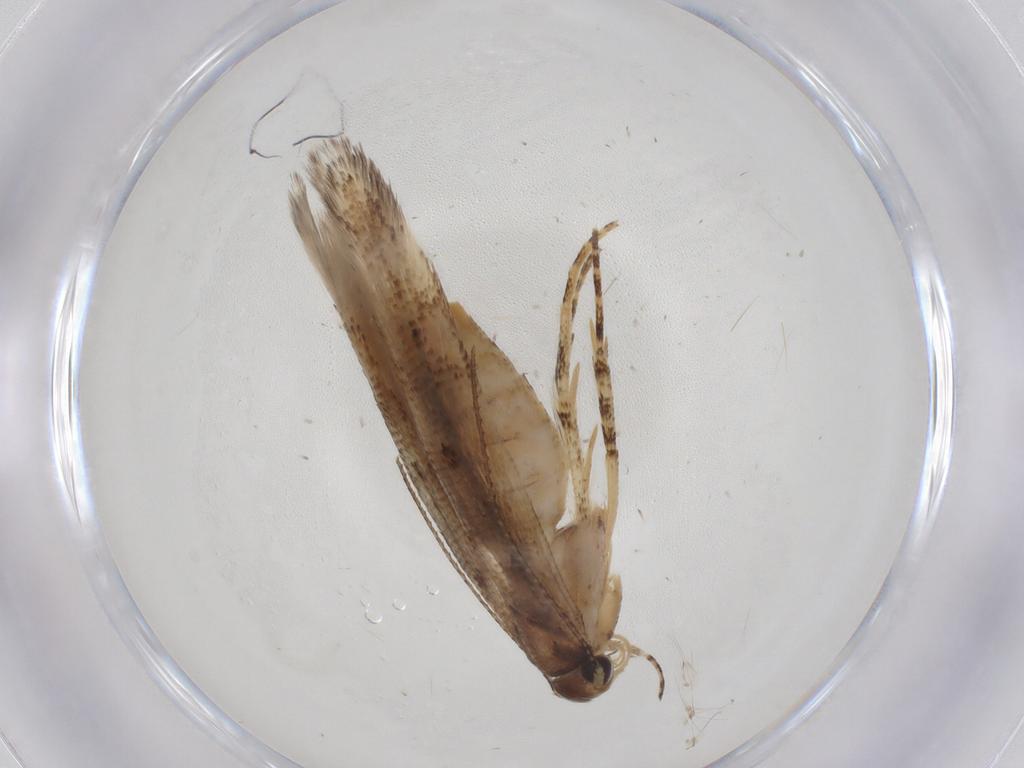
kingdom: Animalia
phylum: Arthropoda
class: Insecta
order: Lepidoptera
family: Gelechiidae
